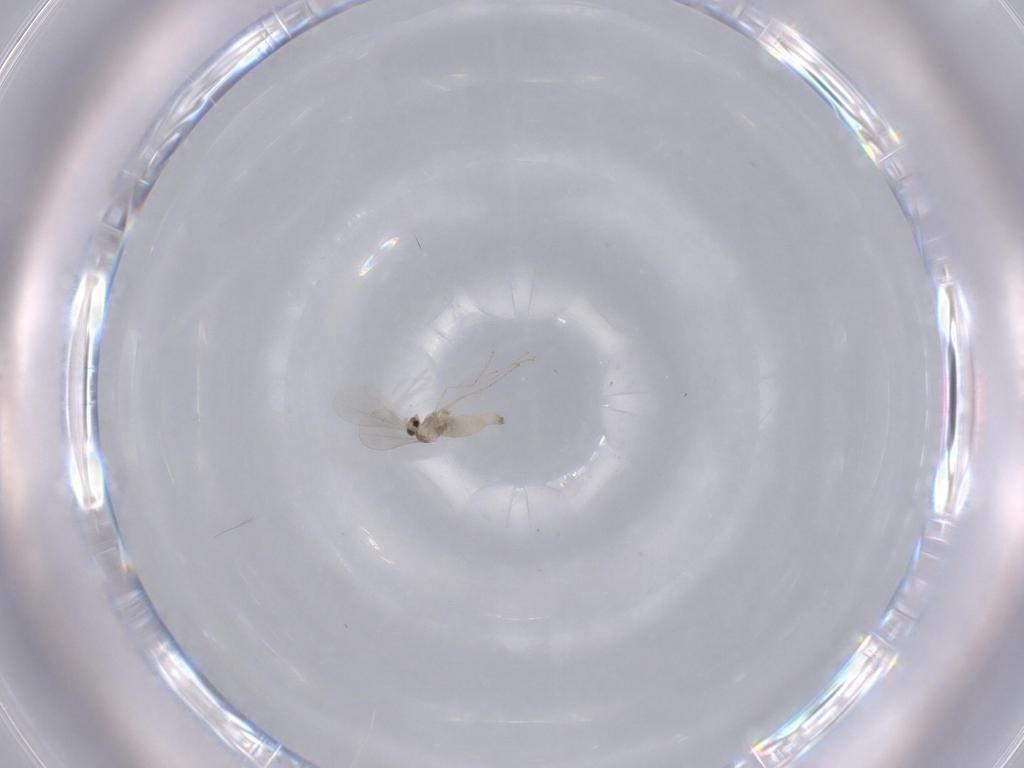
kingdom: Animalia
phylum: Arthropoda
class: Insecta
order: Diptera
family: Cecidomyiidae
